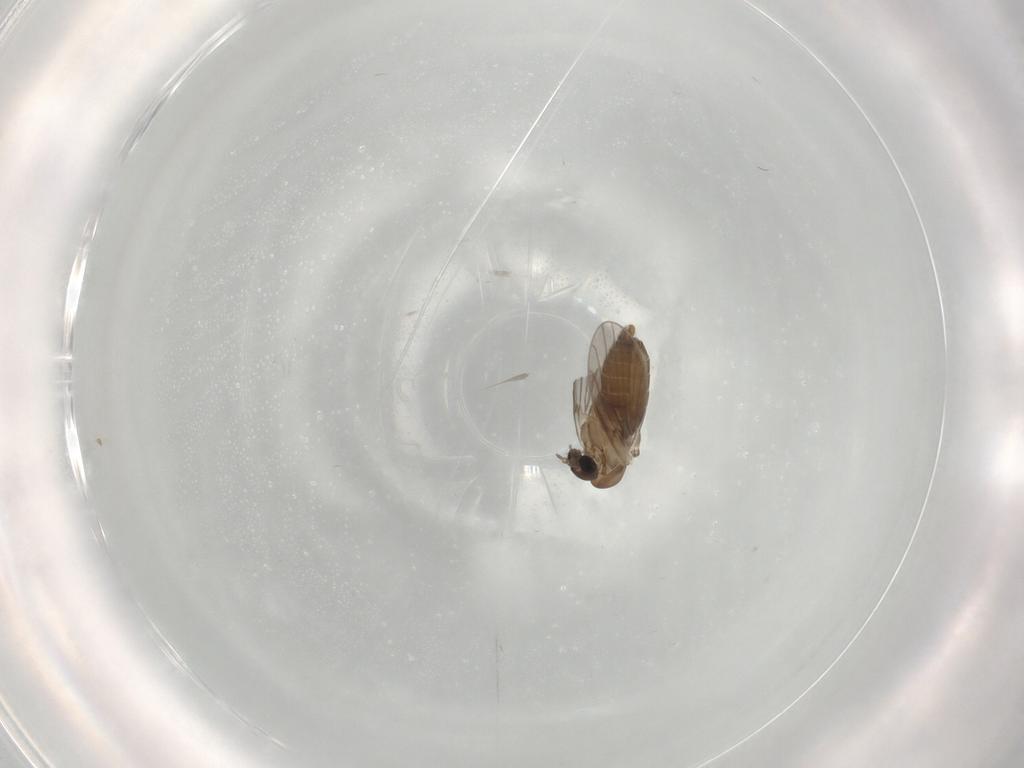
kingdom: Animalia
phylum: Arthropoda
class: Insecta
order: Diptera
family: Cecidomyiidae
